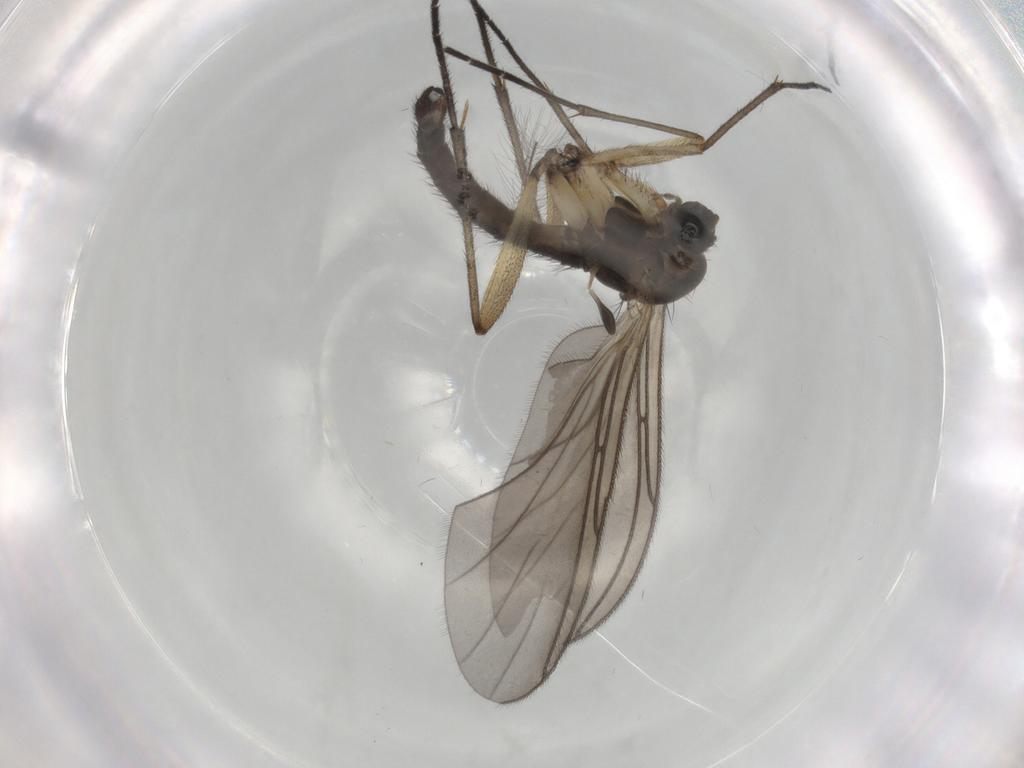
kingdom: Animalia
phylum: Arthropoda
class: Insecta
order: Diptera
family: Sciaridae
